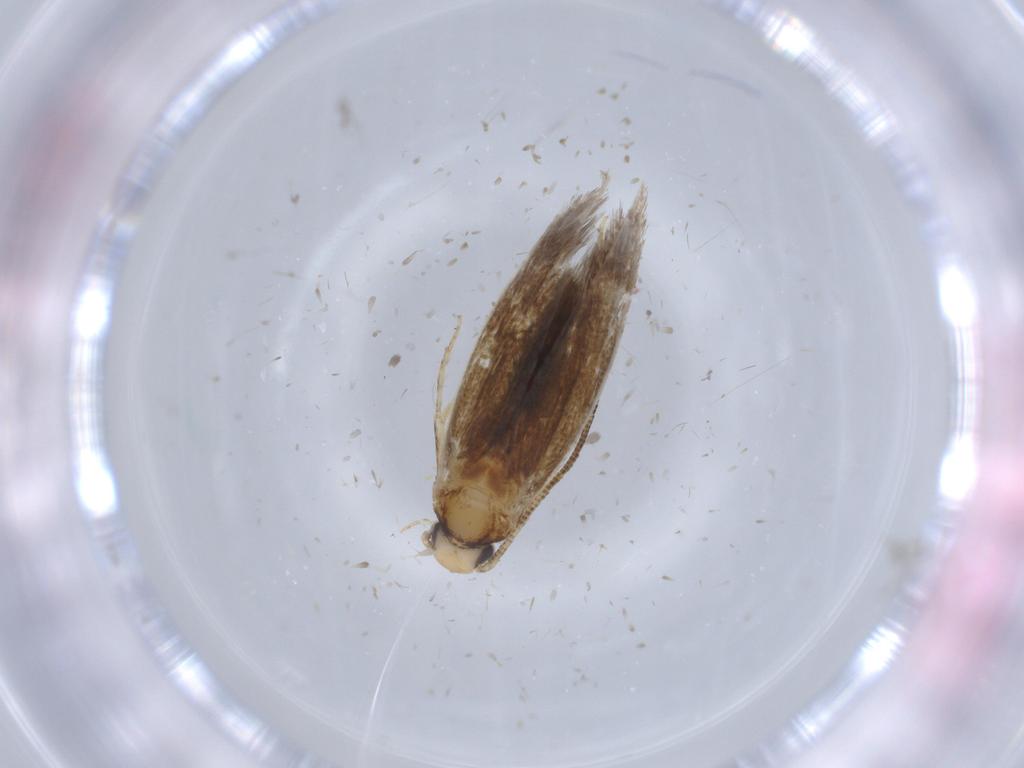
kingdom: Animalia
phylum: Arthropoda
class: Insecta
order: Lepidoptera
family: Tineidae
